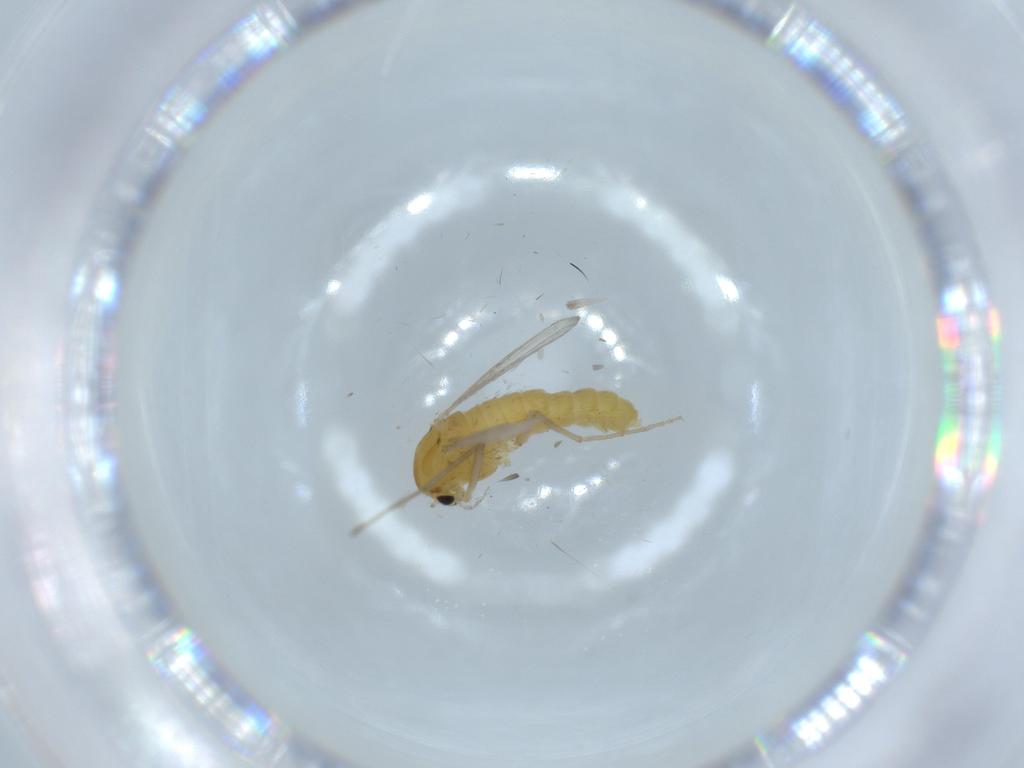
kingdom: Animalia
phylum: Arthropoda
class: Insecta
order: Diptera
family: Chironomidae
